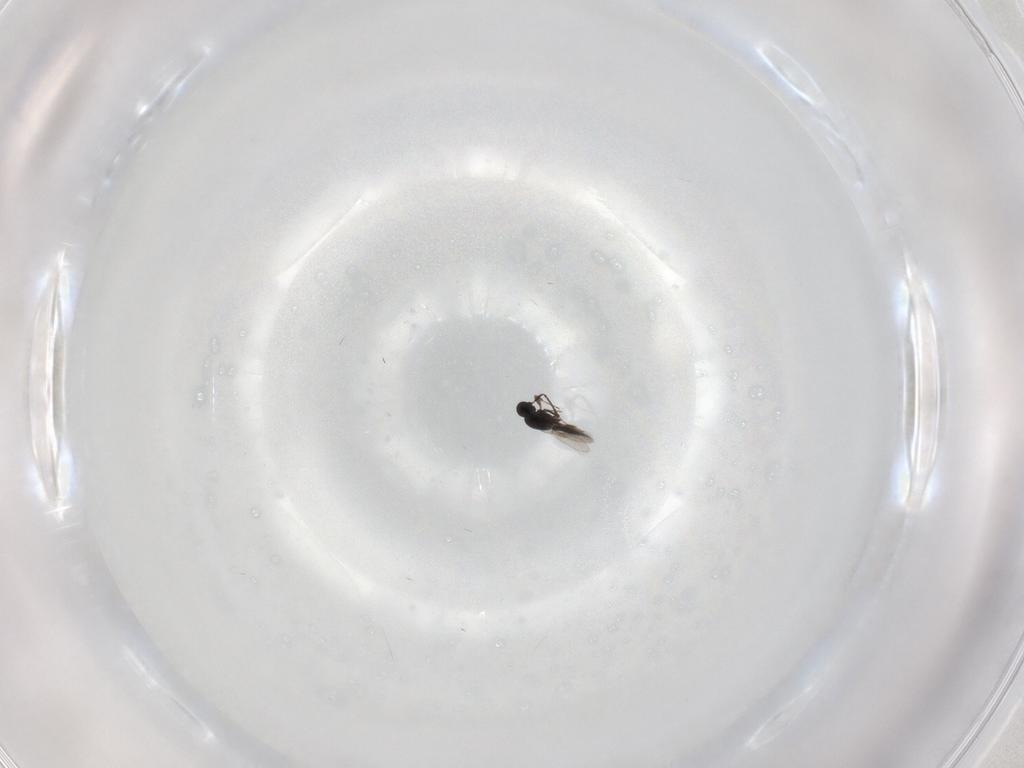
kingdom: Animalia
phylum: Arthropoda
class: Insecta
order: Hymenoptera
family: Scelionidae
